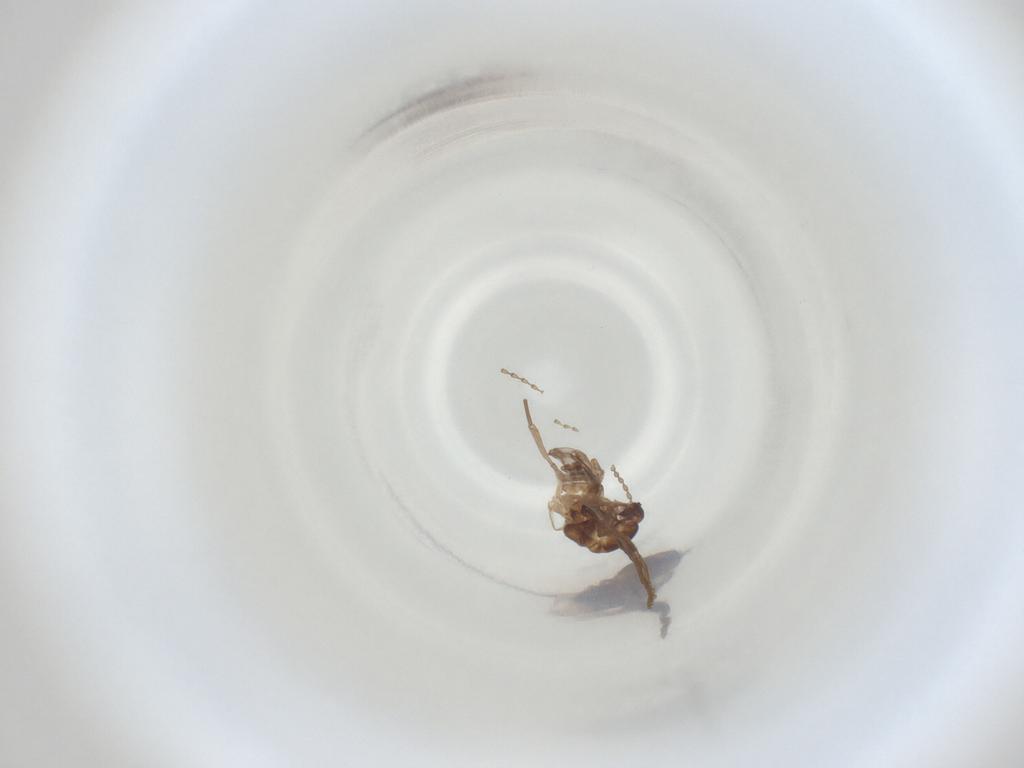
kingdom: Animalia
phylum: Arthropoda
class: Insecta
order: Diptera
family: Cecidomyiidae
